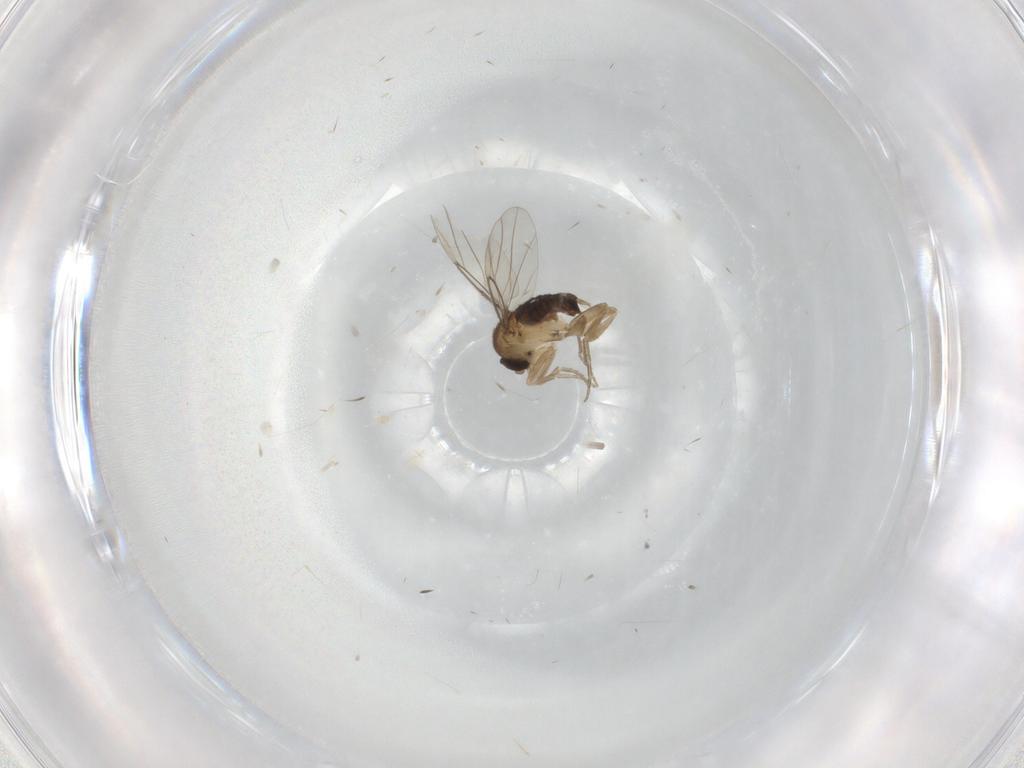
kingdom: Animalia
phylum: Arthropoda
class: Insecta
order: Diptera
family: Phoridae
